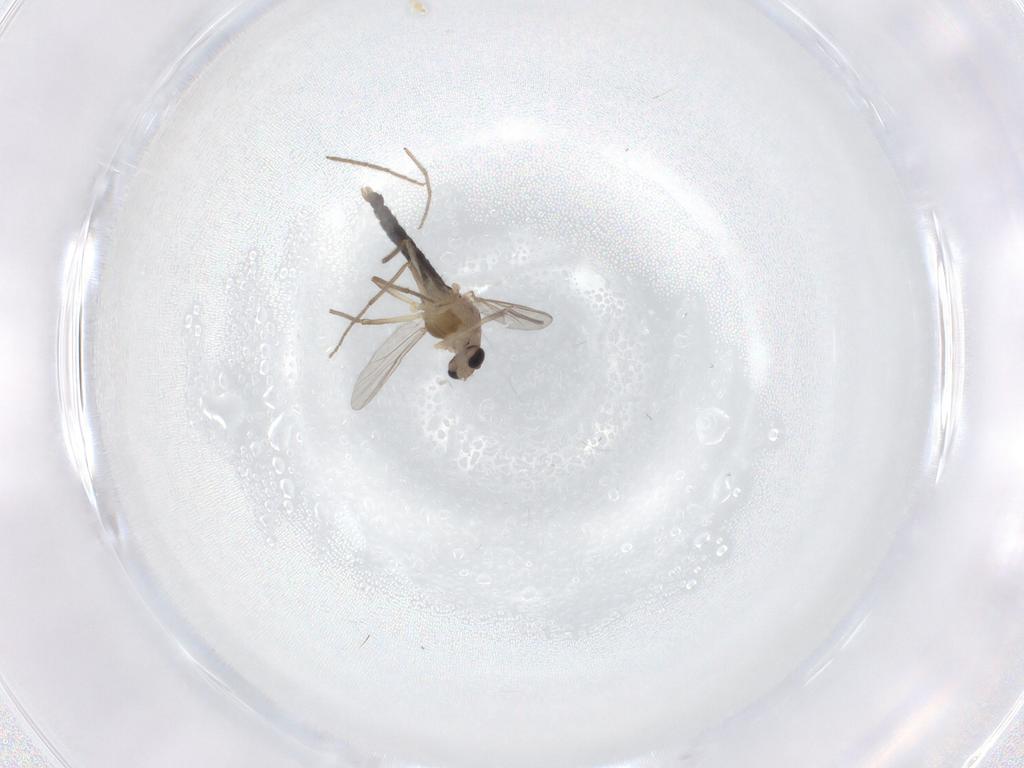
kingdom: Animalia
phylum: Arthropoda
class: Insecta
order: Diptera
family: Chironomidae
